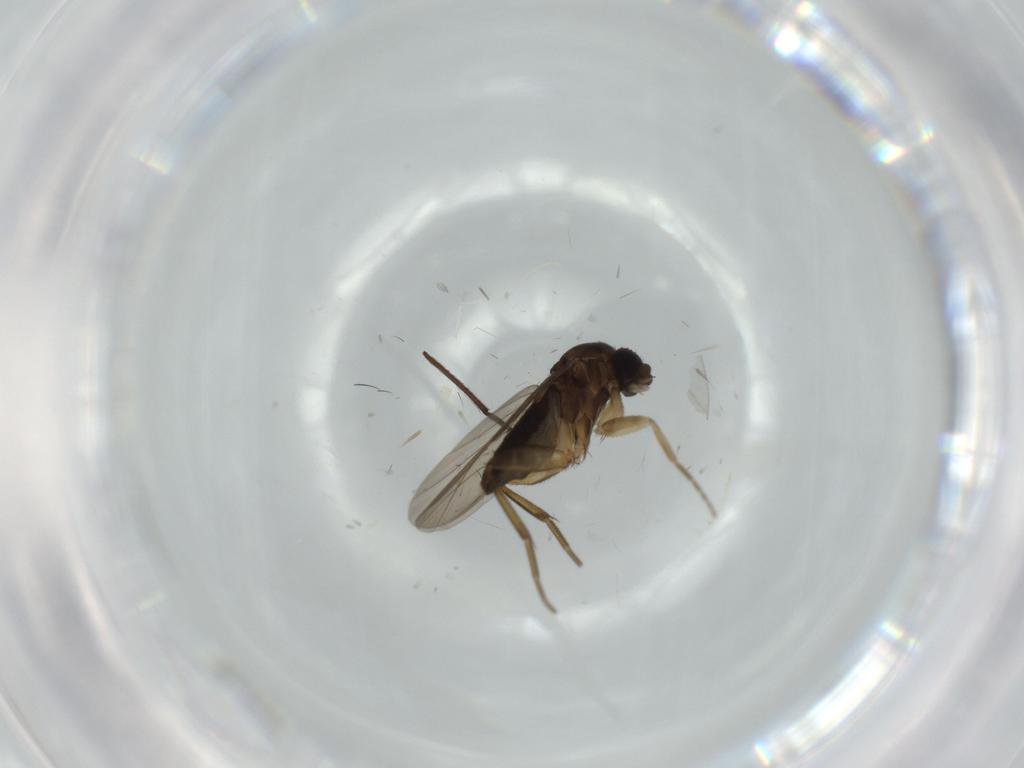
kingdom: Animalia
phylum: Arthropoda
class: Insecta
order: Diptera
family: Phoridae
